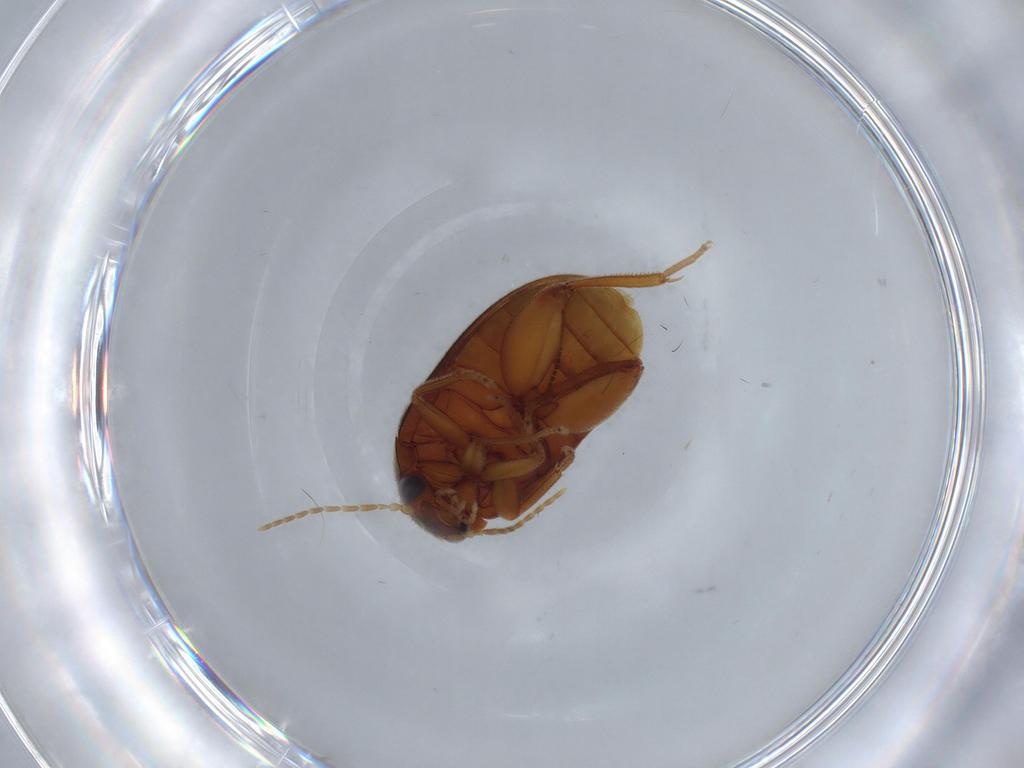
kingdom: Animalia
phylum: Arthropoda
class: Insecta
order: Coleoptera
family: Scirtidae
